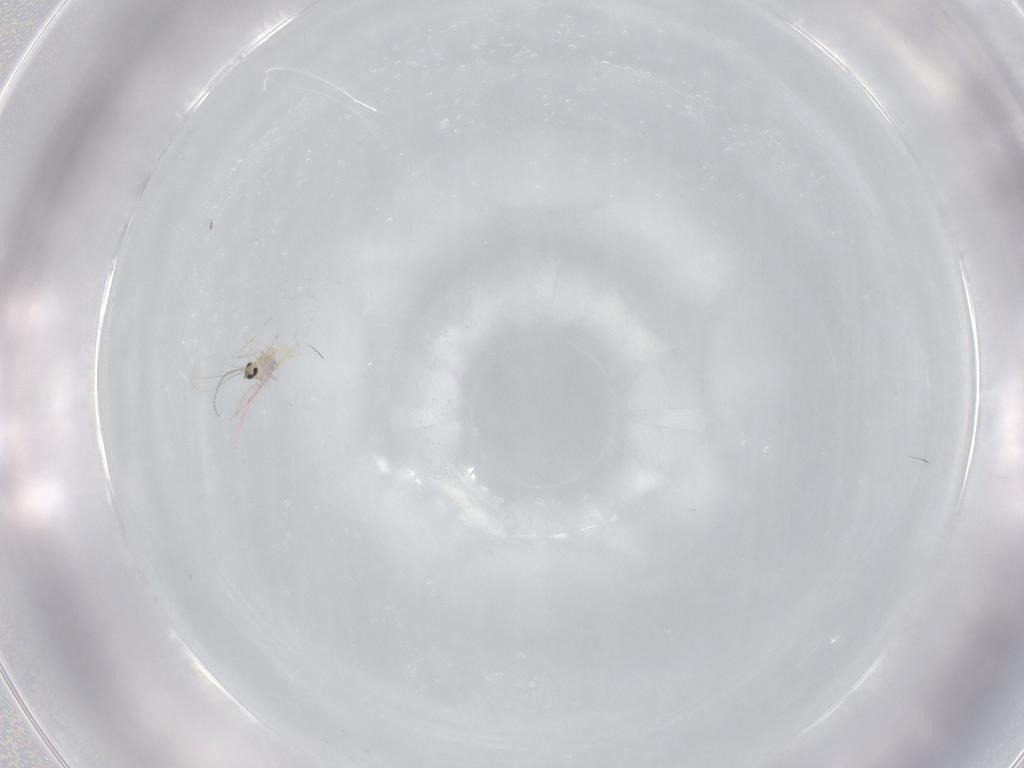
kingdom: Animalia
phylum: Arthropoda
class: Insecta
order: Diptera
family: Cecidomyiidae
